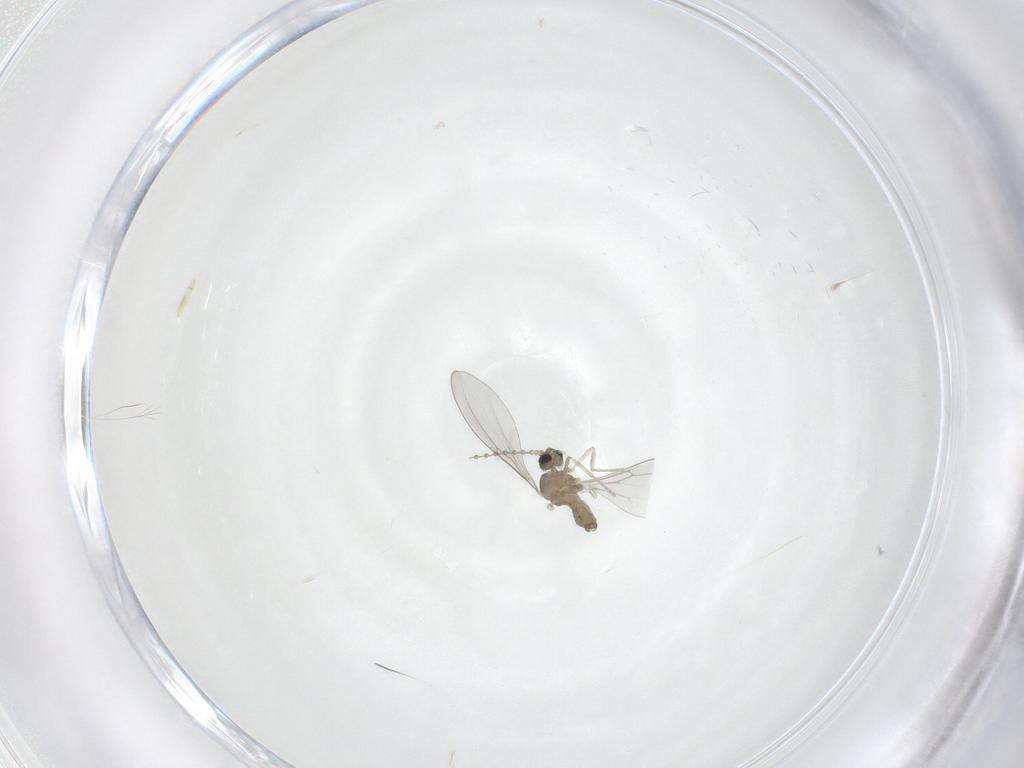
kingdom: Animalia
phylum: Arthropoda
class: Insecta
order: Diptera
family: Cecidomyiidae
